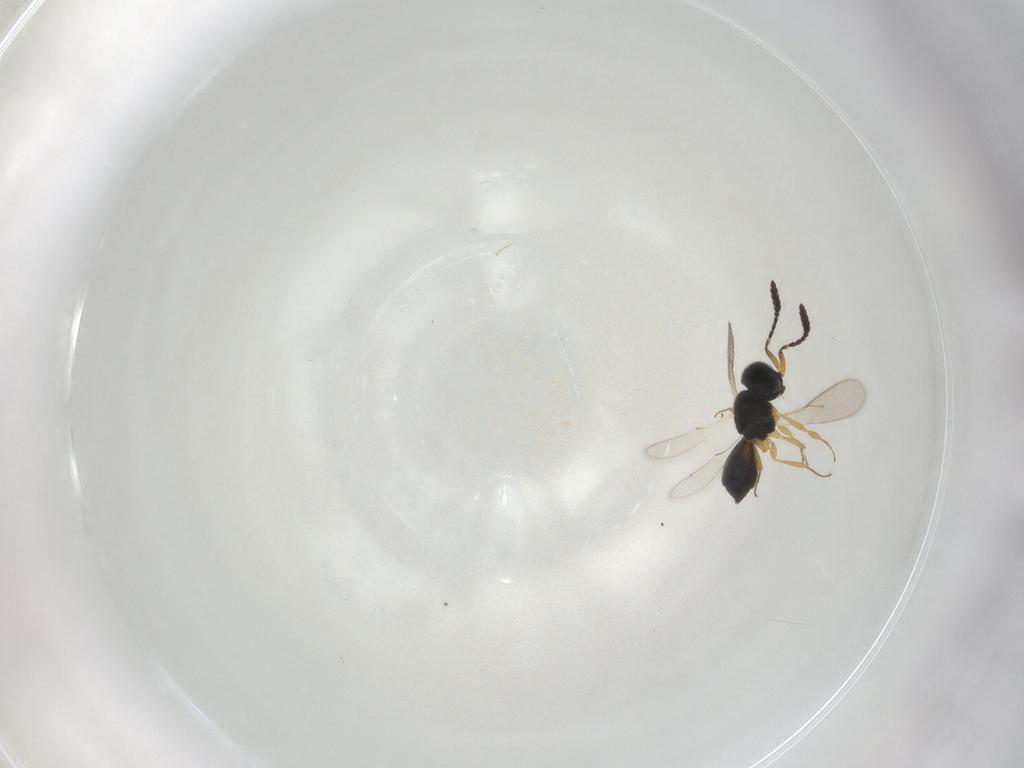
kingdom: Animalia
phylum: Arthropoda
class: Insecta
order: Hymenoptera
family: Scelionidae
